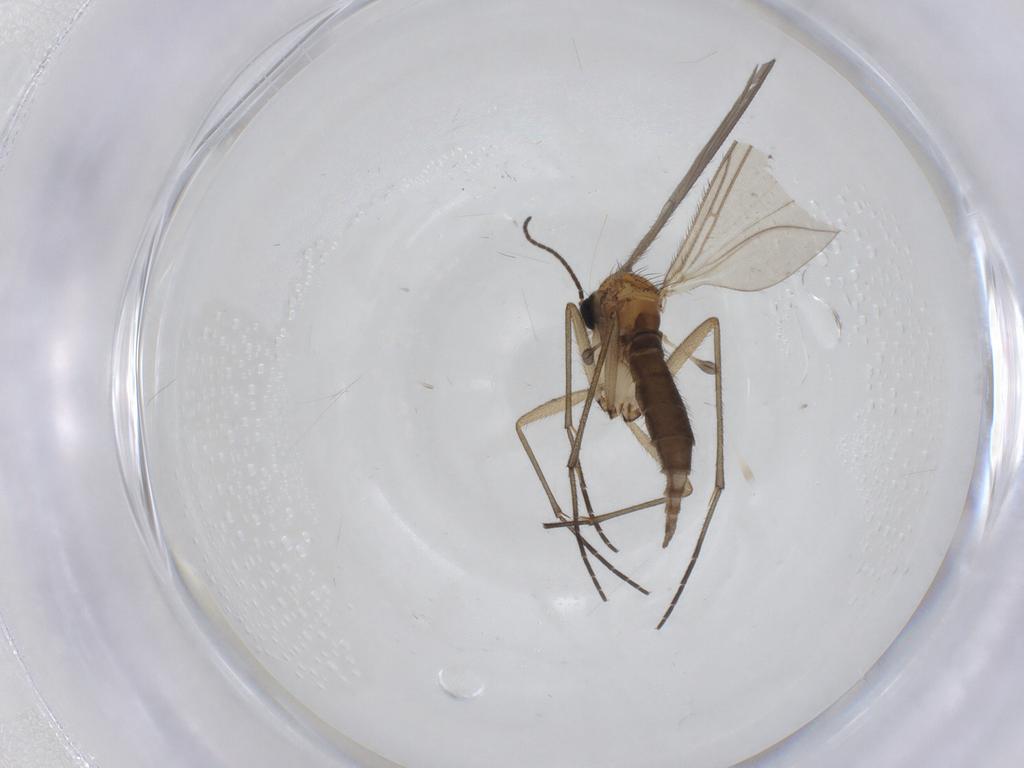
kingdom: Animalia
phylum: Arthropoda
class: Insecta
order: Diptera
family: Sciaridae
